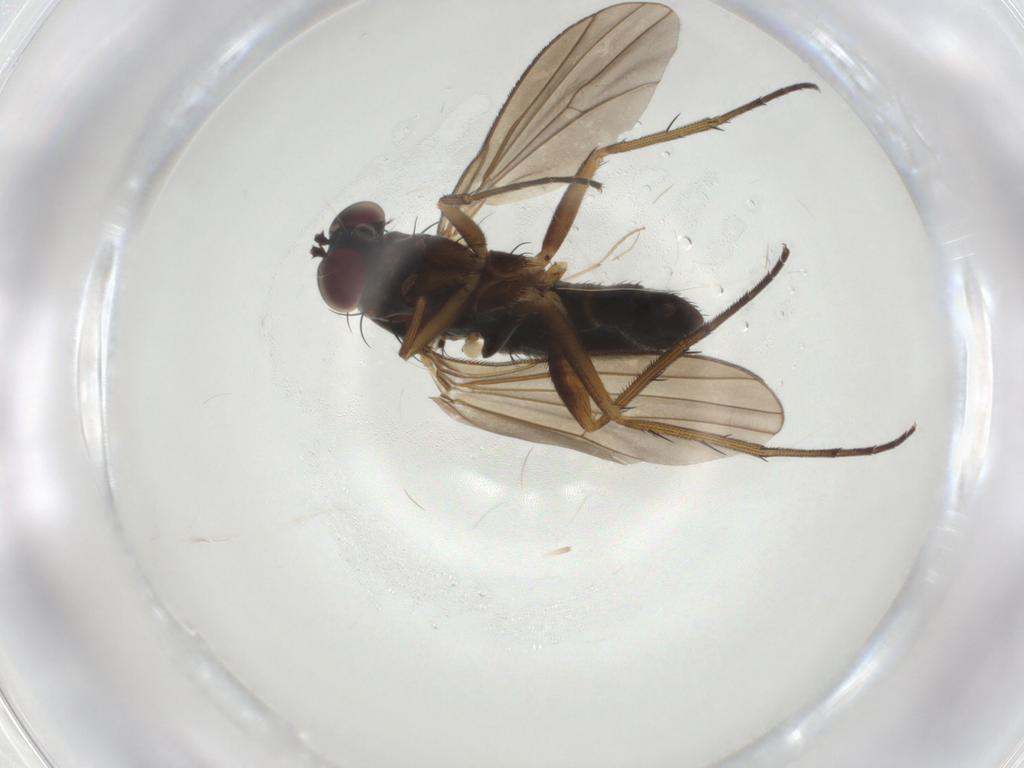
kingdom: Animalia
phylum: Arthropoda
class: Insecta
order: Diptera
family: Dolichopodidae
